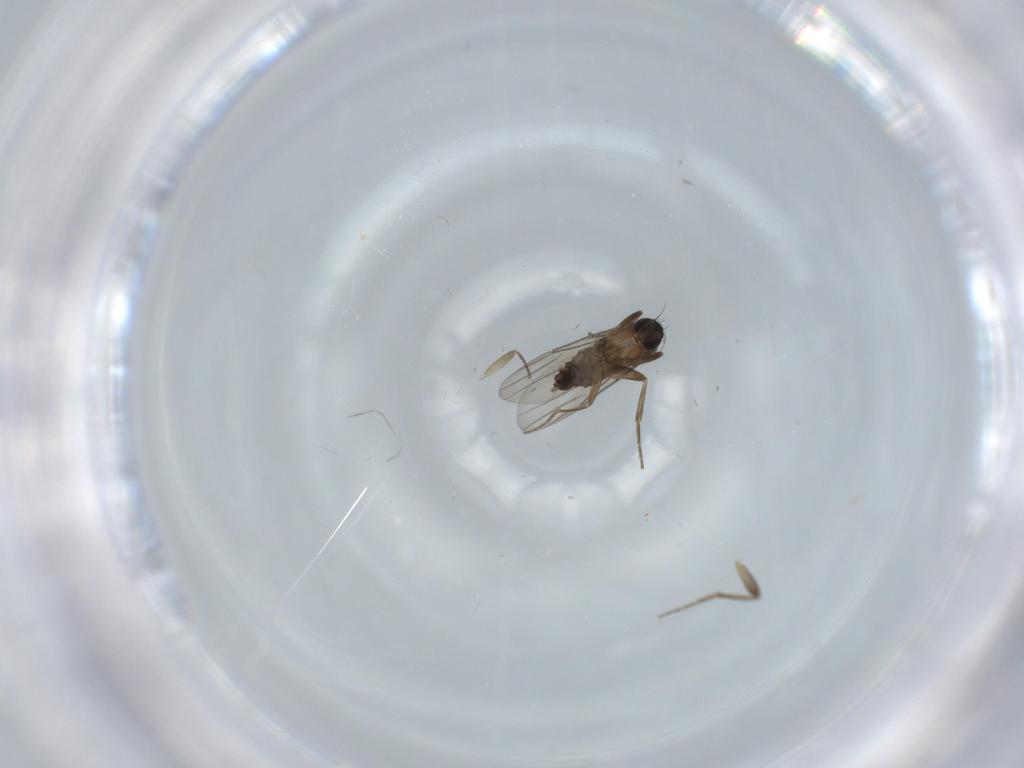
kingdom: Animalia
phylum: Arthropoda
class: Insecta
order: Diptera
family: Phoridae
